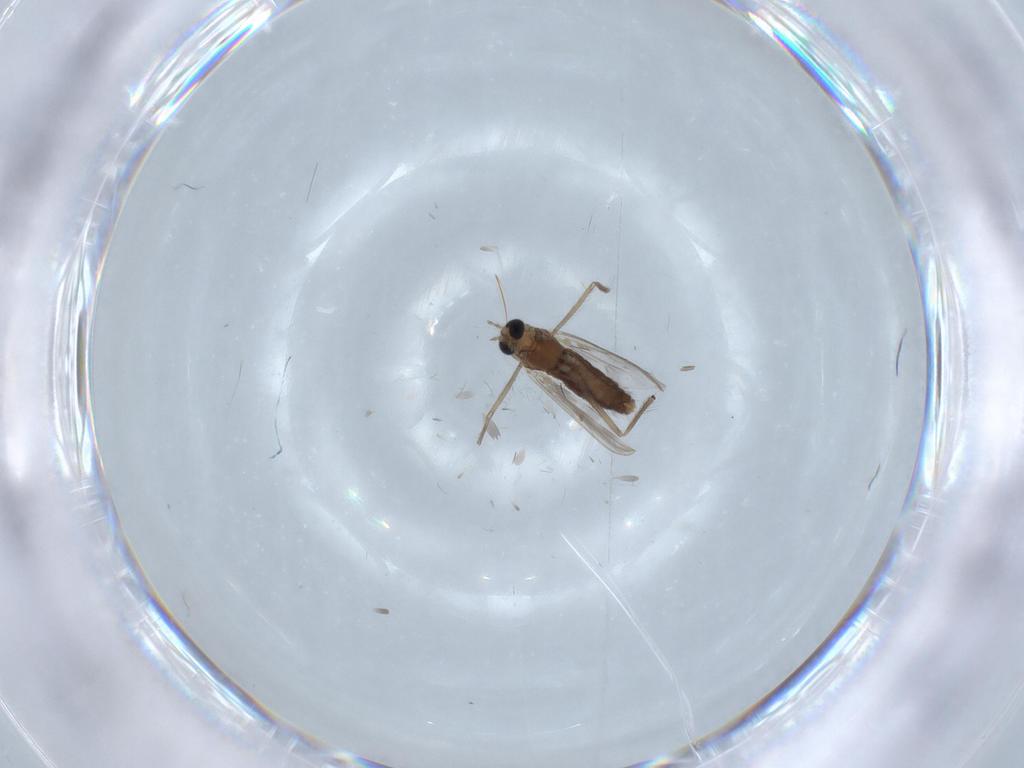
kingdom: Animalia
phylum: Arthropoda
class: Insecta
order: Diptera
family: Chironomidae
